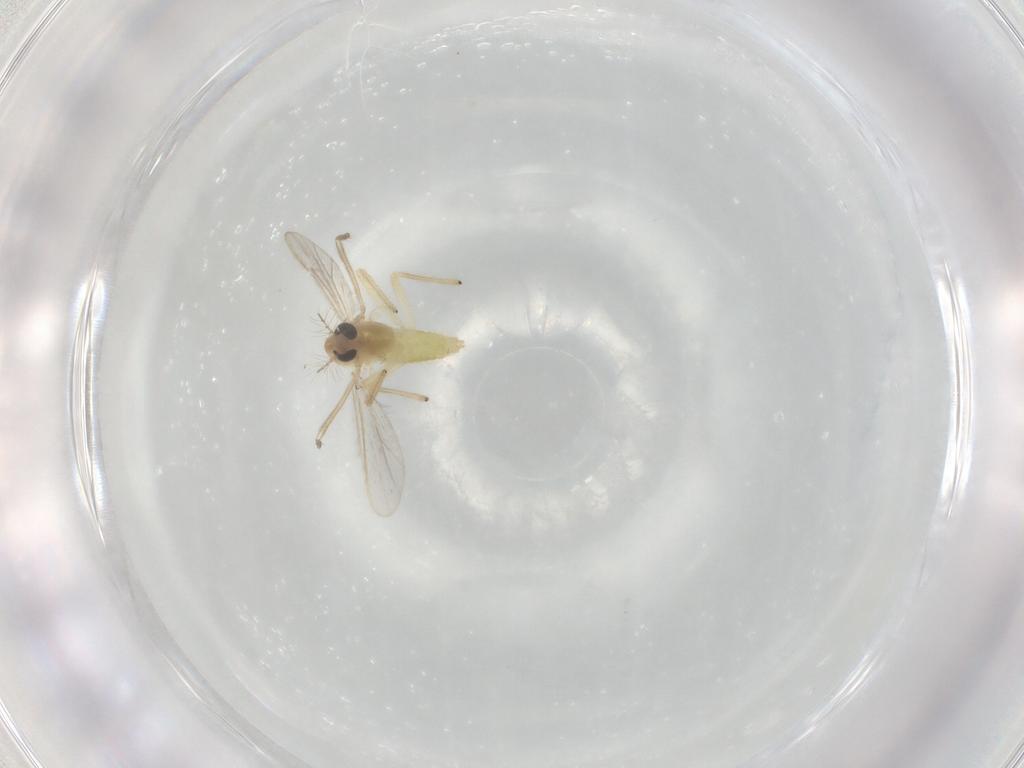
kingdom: Animalia
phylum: Arthropoda
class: Insecta
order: Diptera
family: Chironomidae
